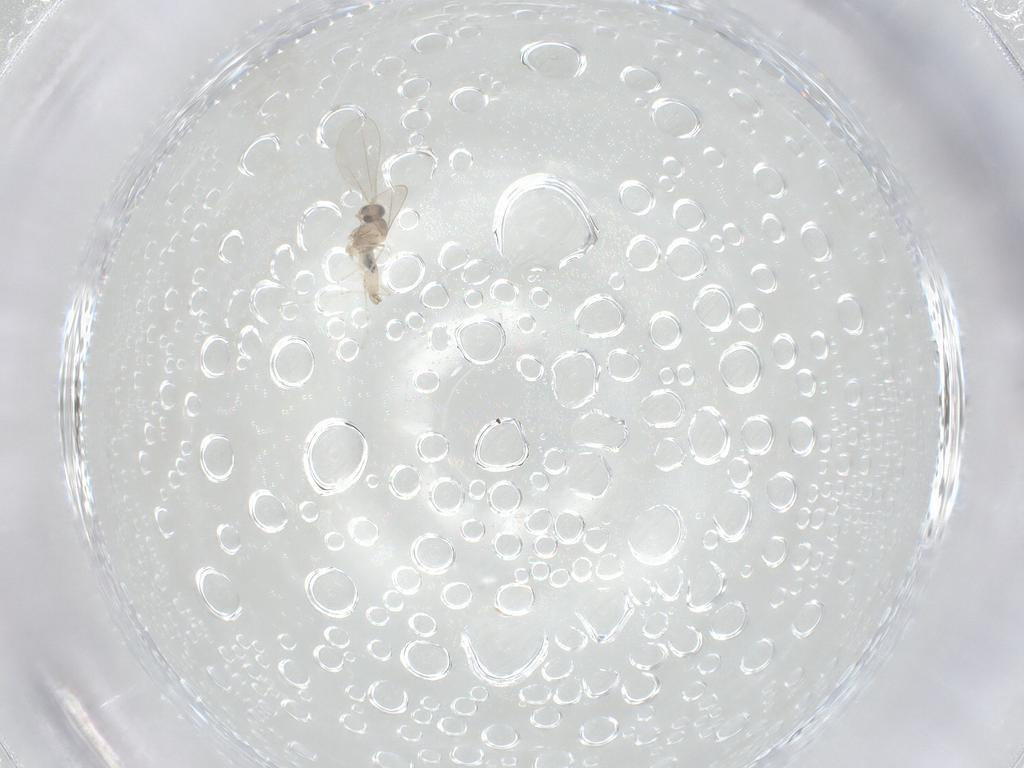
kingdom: Animalia
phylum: Arthropoda
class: Insecta
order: Diptera
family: Cecidomyiidae
